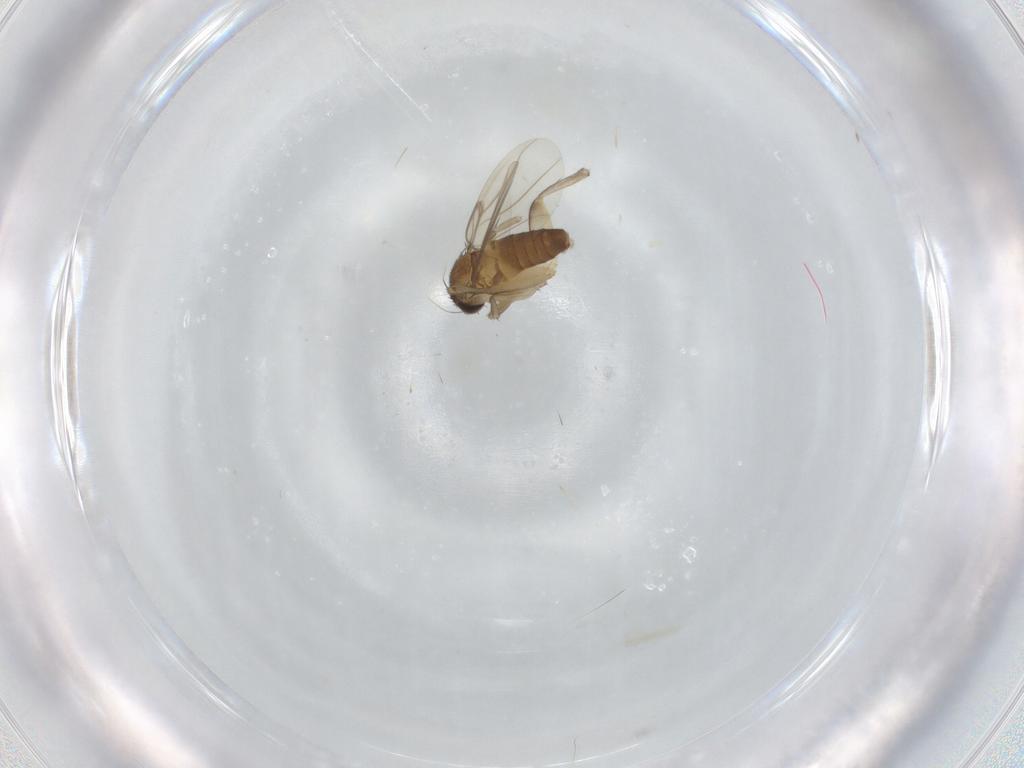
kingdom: Animalia
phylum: Arthropoda
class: Insecta
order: Diptera
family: Phoridae
